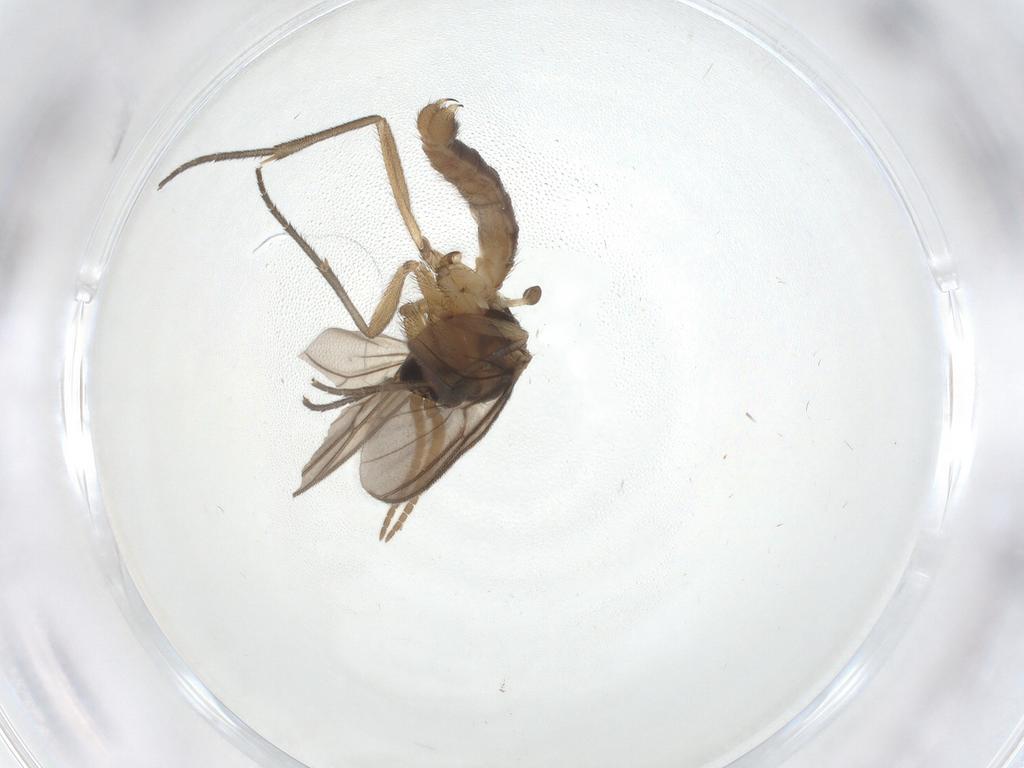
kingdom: Animalia
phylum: Arthropoda
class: Insecta
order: Diptera
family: Mycetophilidae
